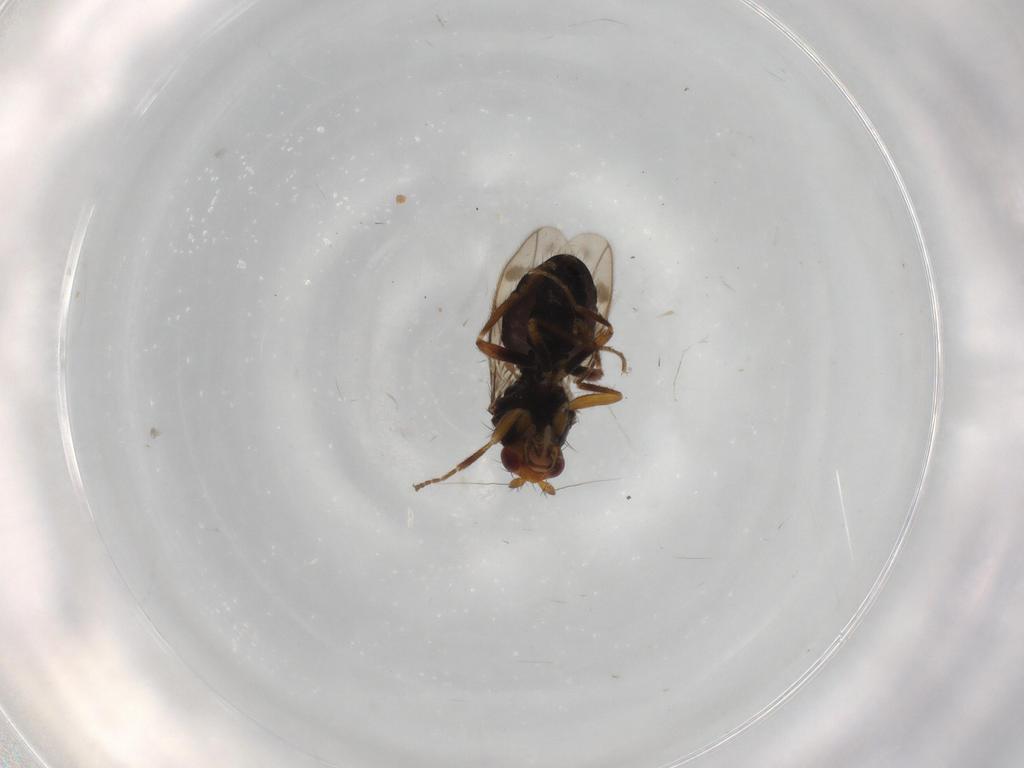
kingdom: Animalia
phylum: Arthropoda
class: Insecta
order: Diptera
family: Sphaeroceridae
